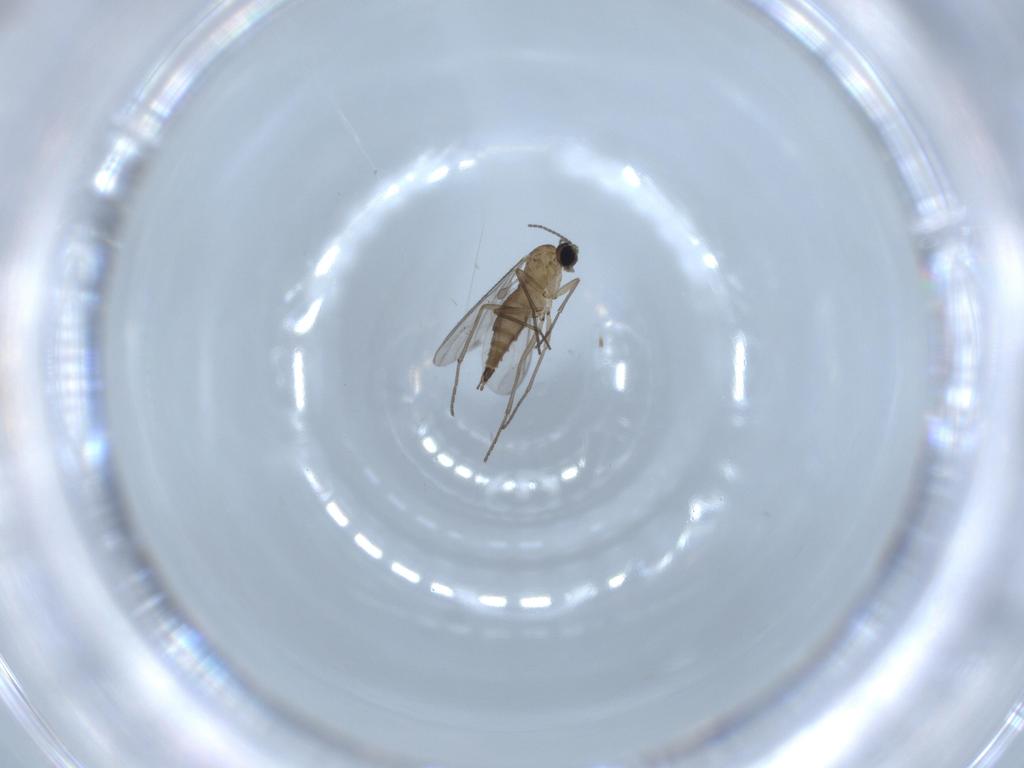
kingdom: Animalia
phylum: Arthropoda
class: Insecta
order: Diptera
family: Sciaridae
